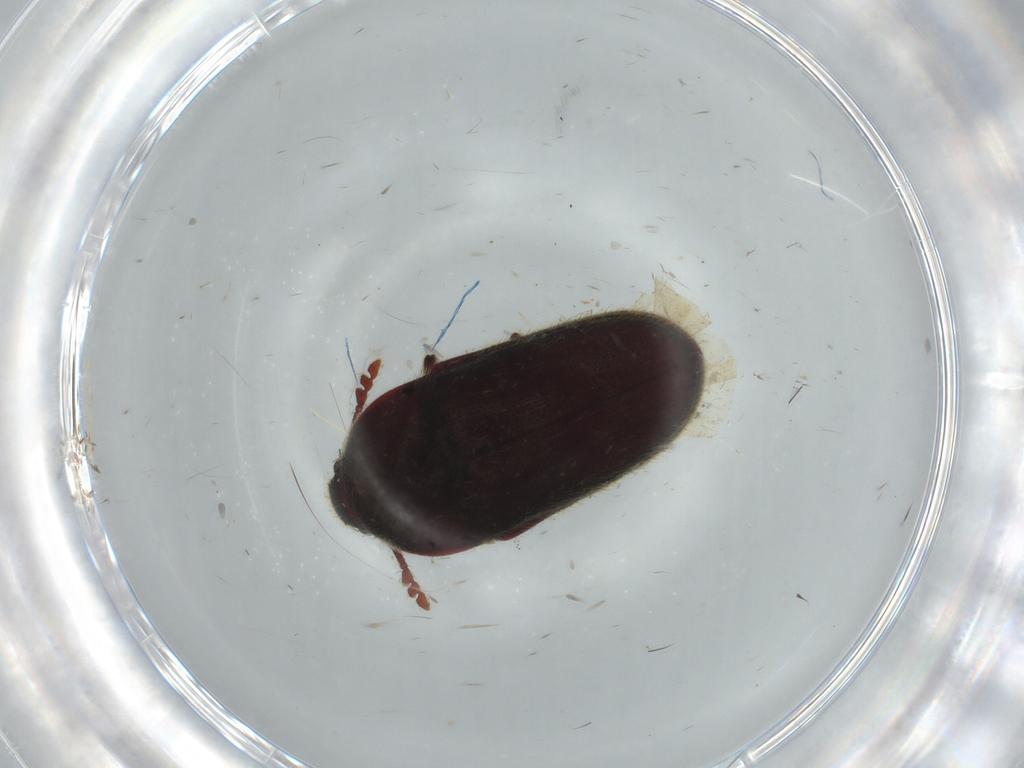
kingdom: Animalia
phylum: Arthropoda
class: Insecta
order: Coleoptera
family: Throscidae
